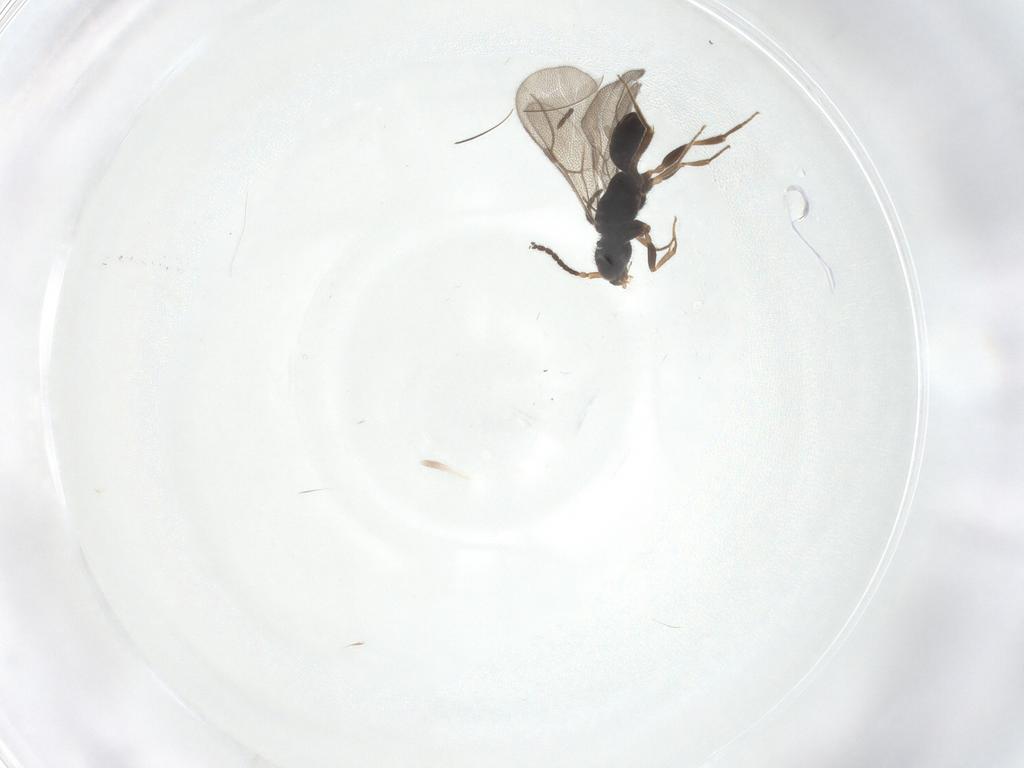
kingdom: Animalia
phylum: Arthropoda
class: Insecta
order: Hymenoptera
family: Bethylidae
